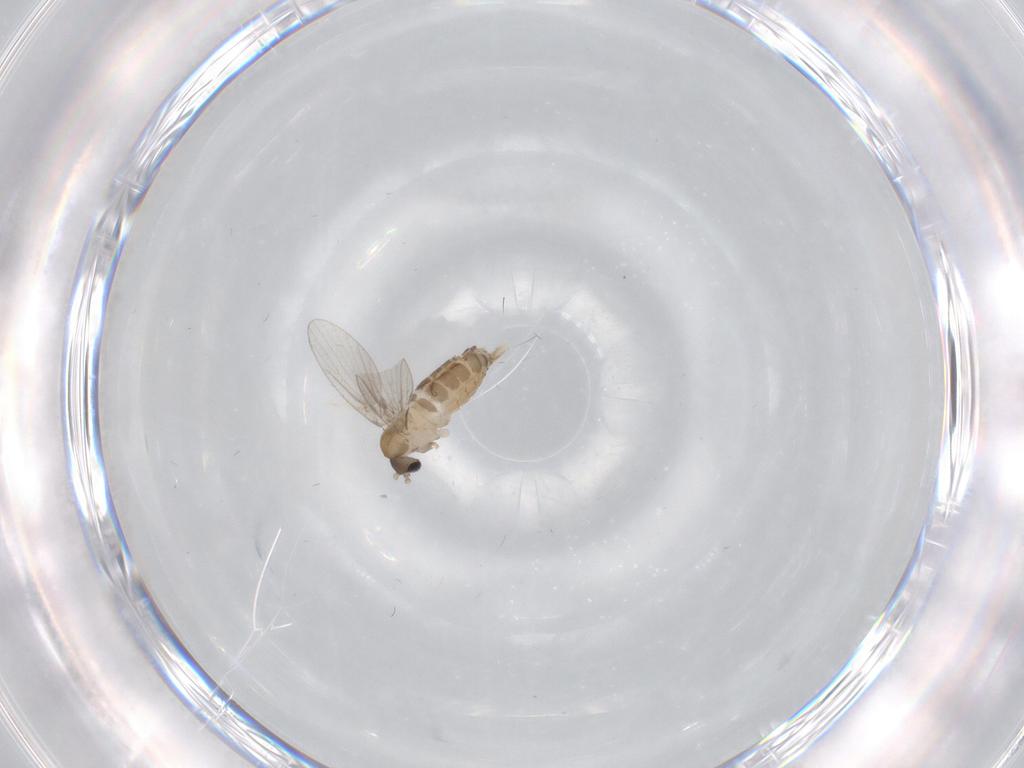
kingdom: Animalia
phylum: Arthropoda
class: Insecta
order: Diptera
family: Psychodidae
